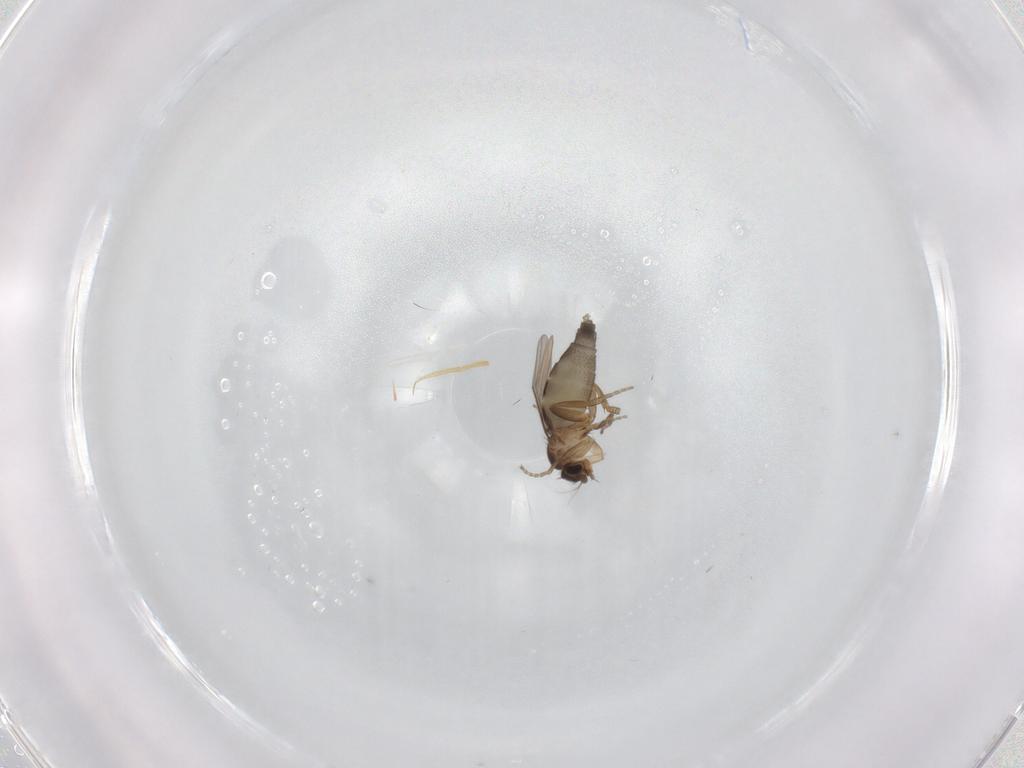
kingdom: Animalia
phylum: Arthropoda
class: Insecta
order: Diptera
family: Phoridae
